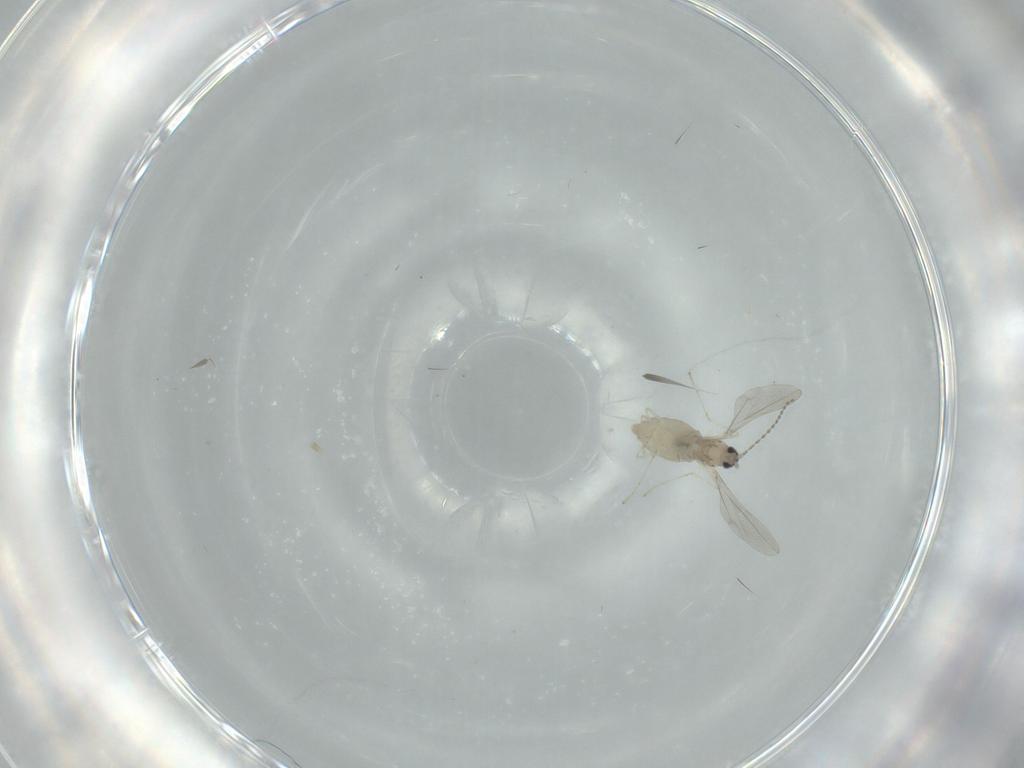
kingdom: Animalia
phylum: Arthropoda
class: Insecta
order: Diptera
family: Cecidomyiidae
